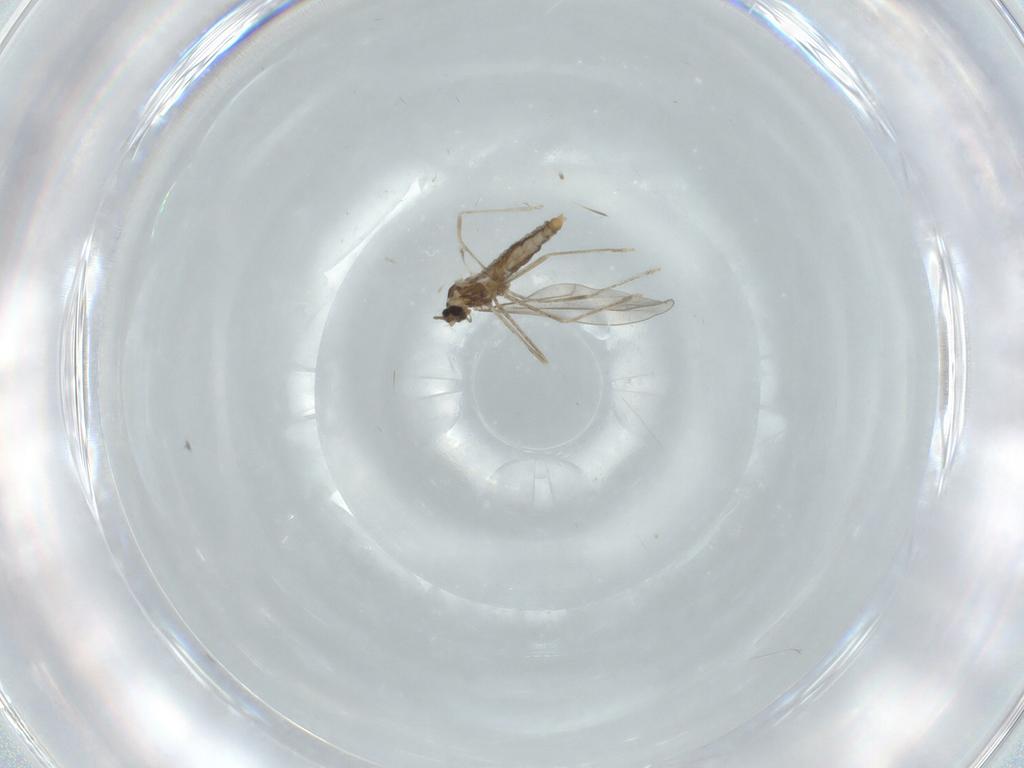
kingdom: Animalia
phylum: Arthropoda
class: Insecta
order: Diptera
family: Cecidomyiidae
